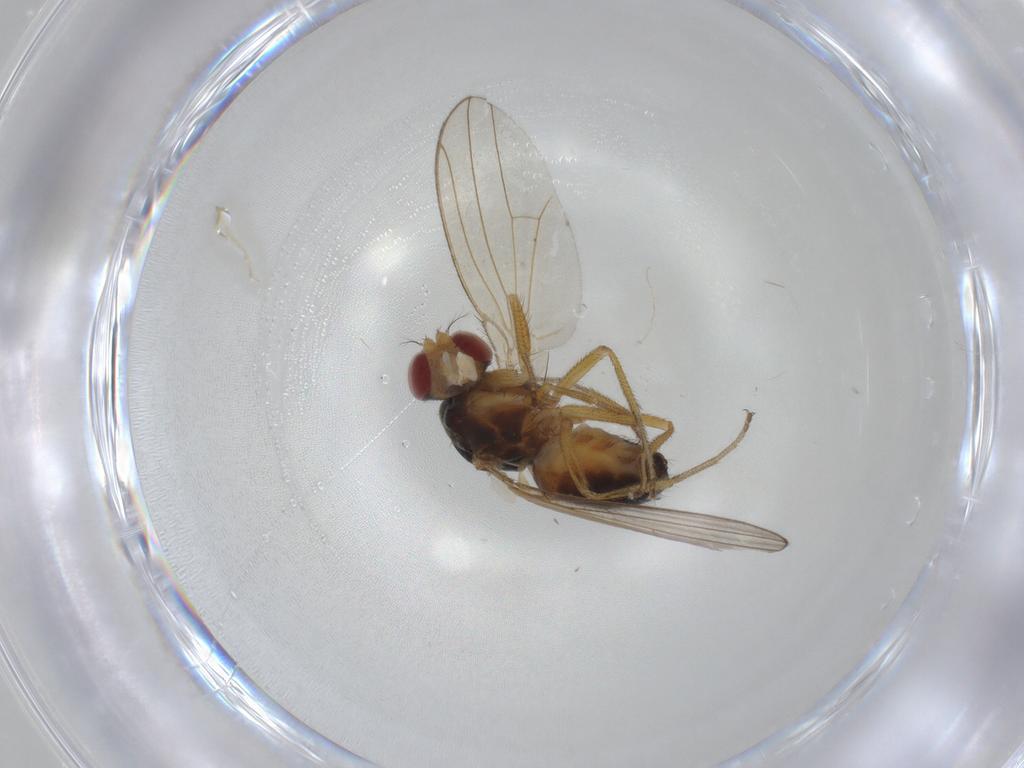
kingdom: Animalia
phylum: Arthropoda
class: Insecta
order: Diptera
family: Drosophilidae
